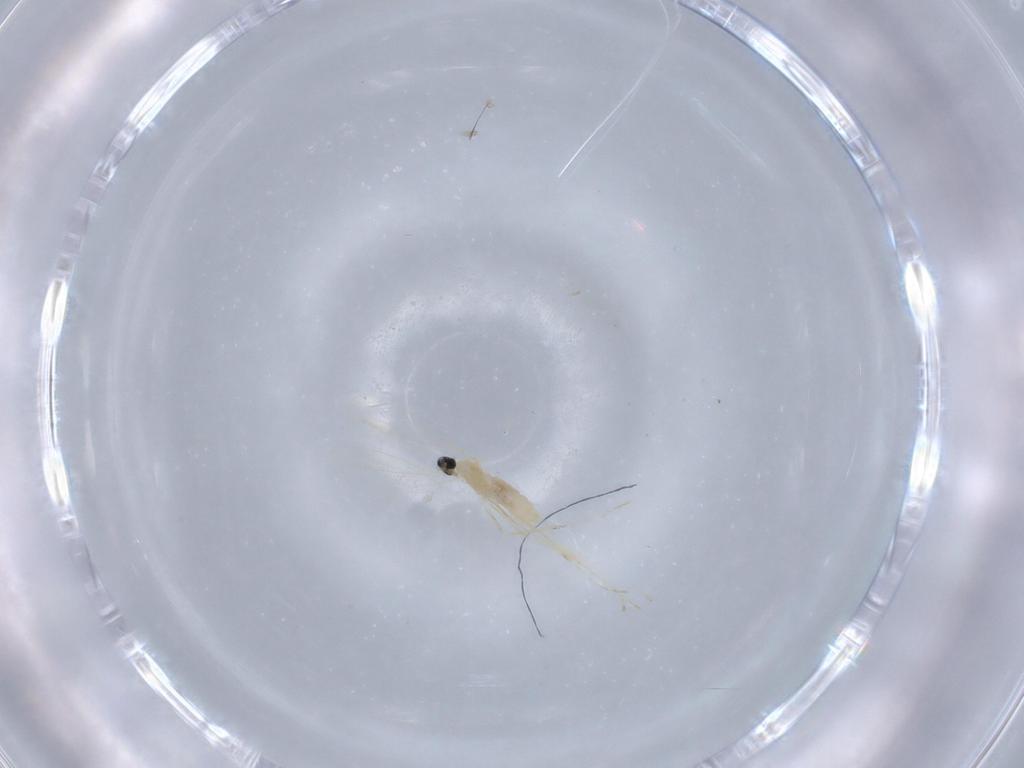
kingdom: Animalia
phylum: Arthropoda
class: Insecta
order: Diptera
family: Cecidomyiidae
